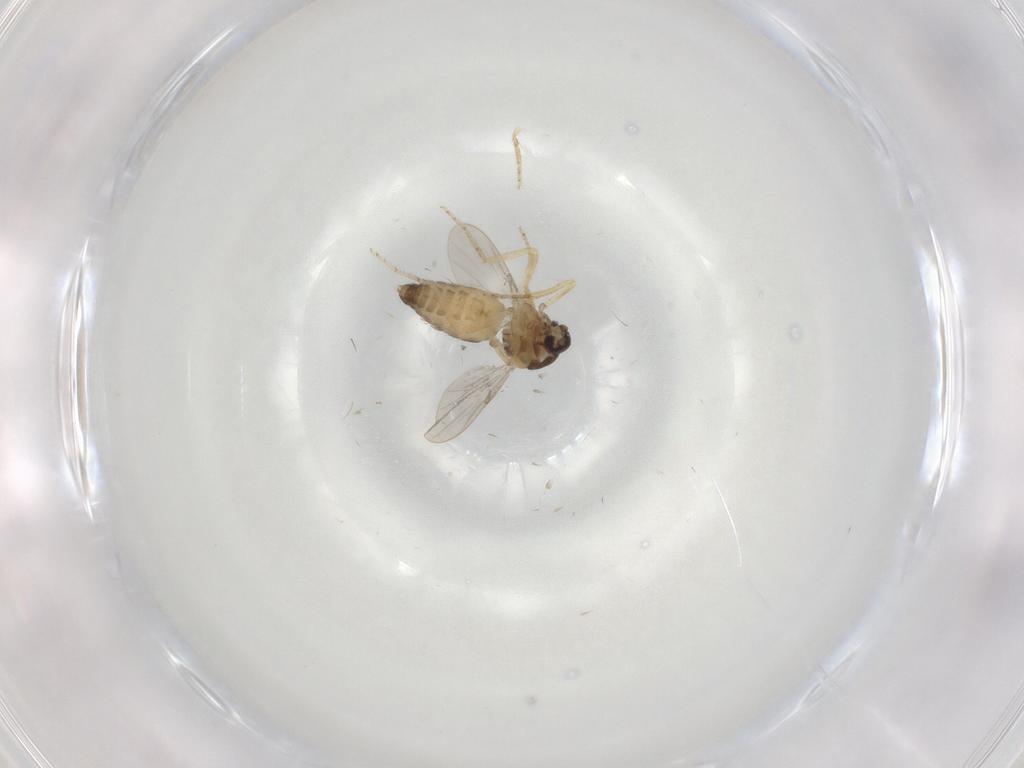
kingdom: Animalia
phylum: Arthropoda
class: Insecta
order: Diptera
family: Ceratopogonidae
